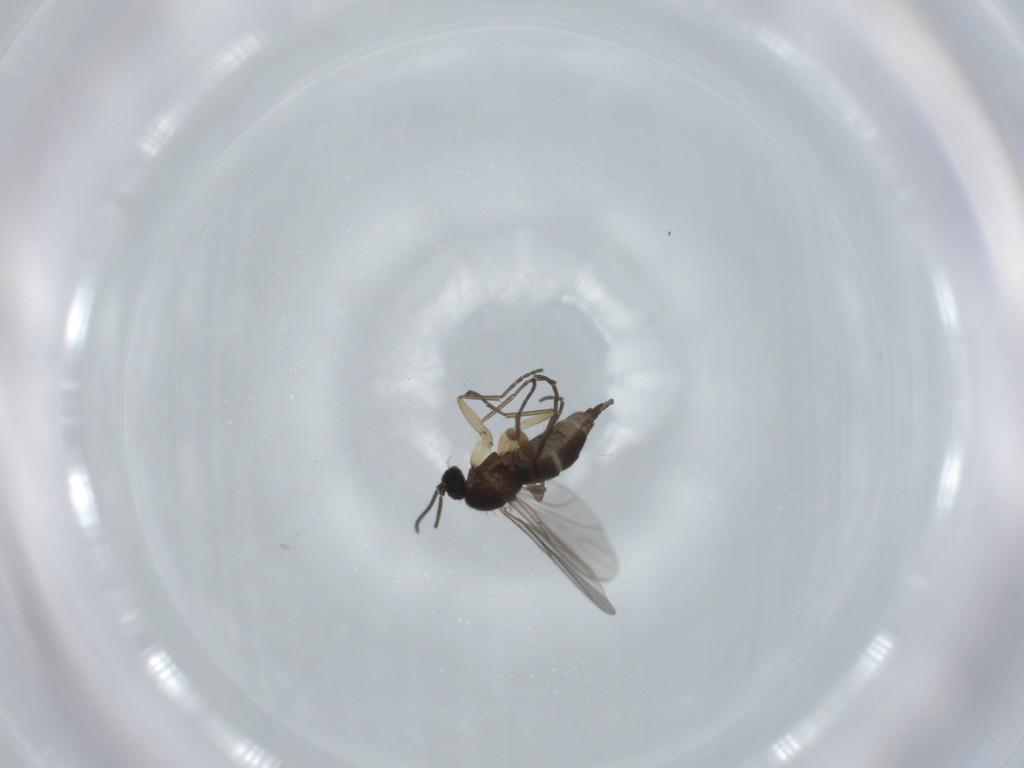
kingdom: Animalia
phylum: Arthropoda
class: Insecta
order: Diptera
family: Sciaridae
